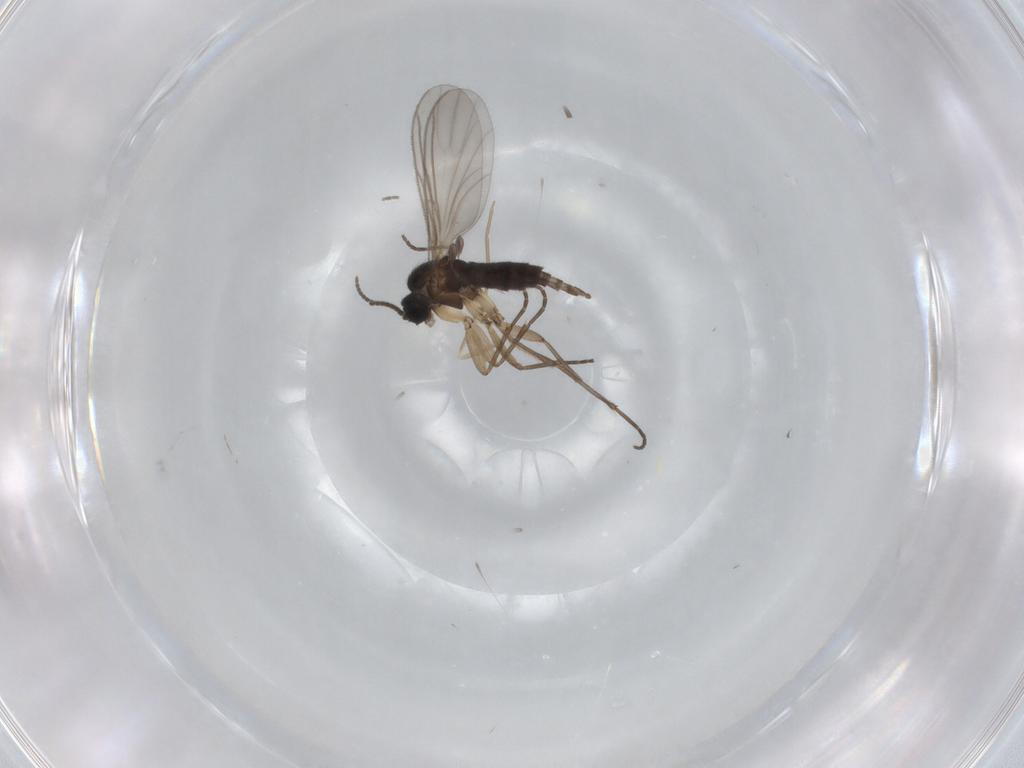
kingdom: Animalia
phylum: Arthropoda
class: Insecta
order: Diptera
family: Cecidomyiidae
